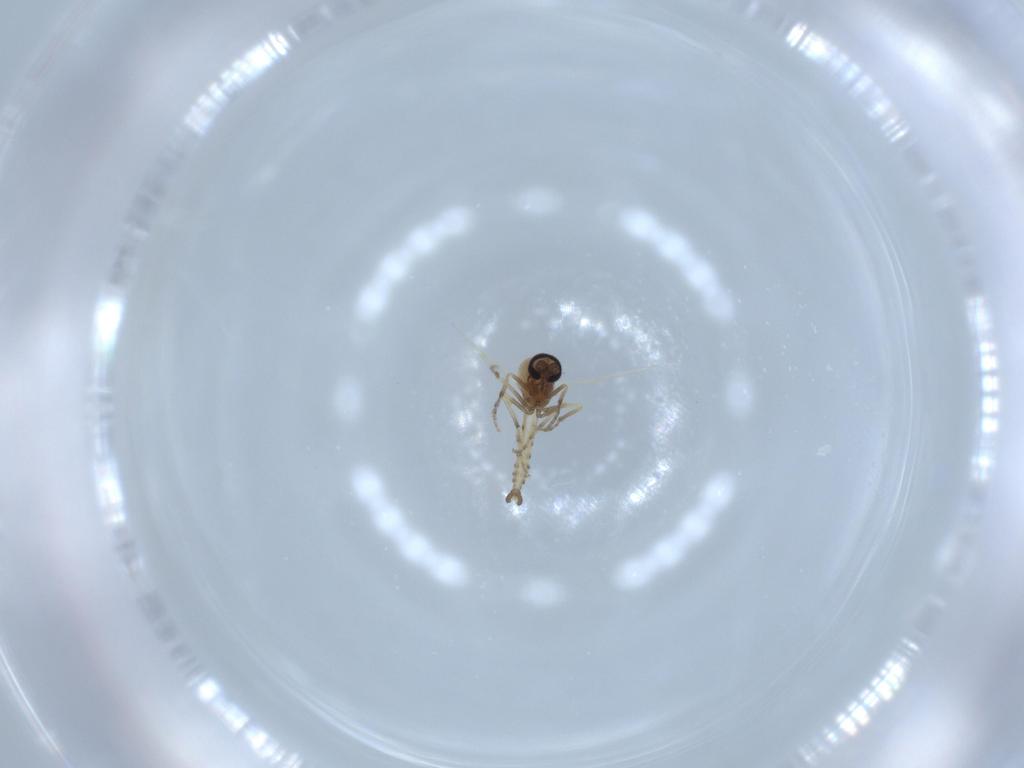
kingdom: Animalia
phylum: Arthropoda
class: Insecta
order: Diptera
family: Ceratopogonidae
